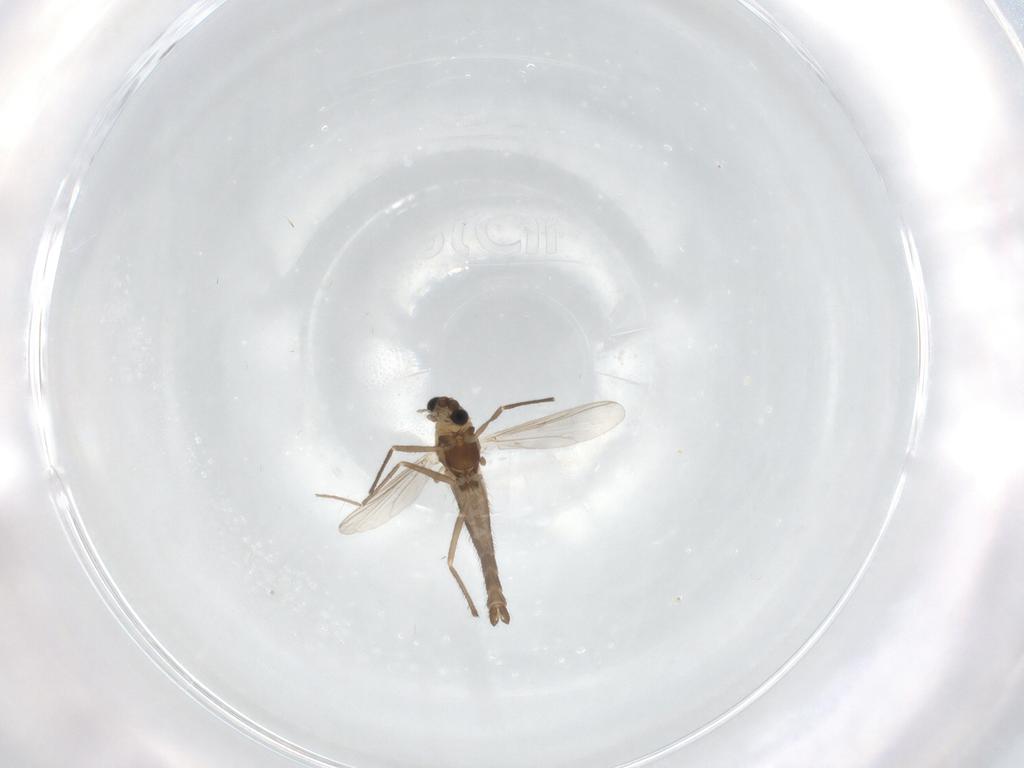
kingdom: Animalia
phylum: Arthropoda
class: Insecta
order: Diptera
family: Chironomidae
